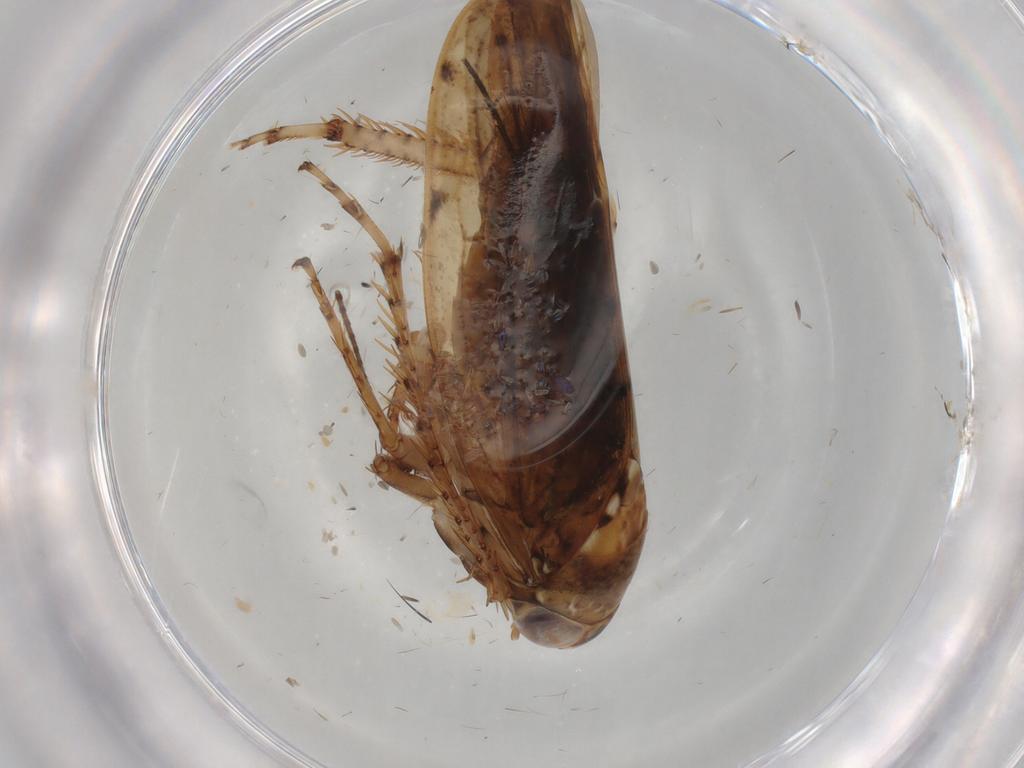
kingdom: Animalia
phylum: Arthropoda
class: Insecta
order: Hemiptera
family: Cicadellidae
